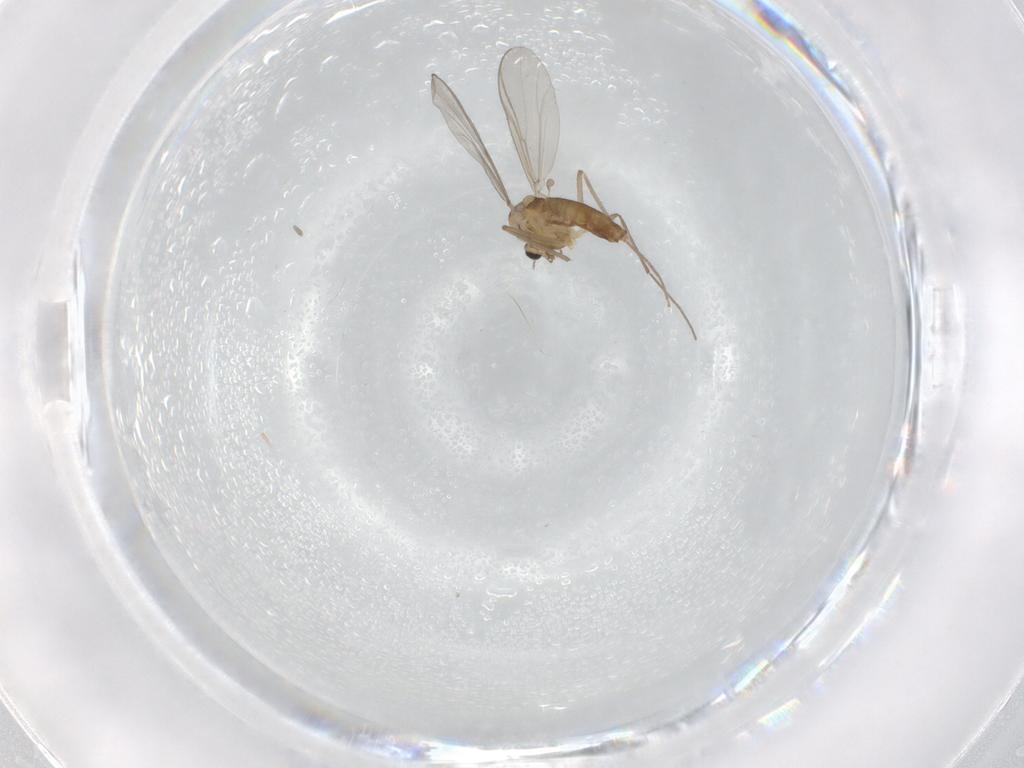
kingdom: Animalia
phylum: Arthropoda
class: Insecta
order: Diptera
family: Chironomidae
